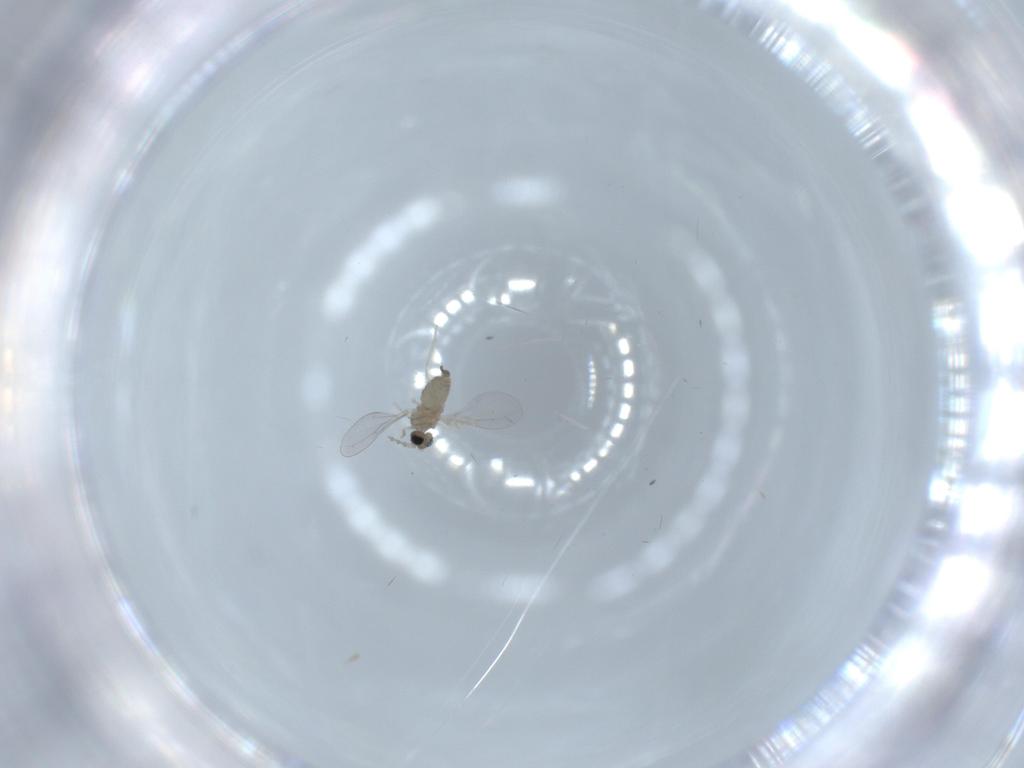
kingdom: Animalia
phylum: Arthropoda
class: Insecta
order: Diptera
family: Cecidomyiidae
